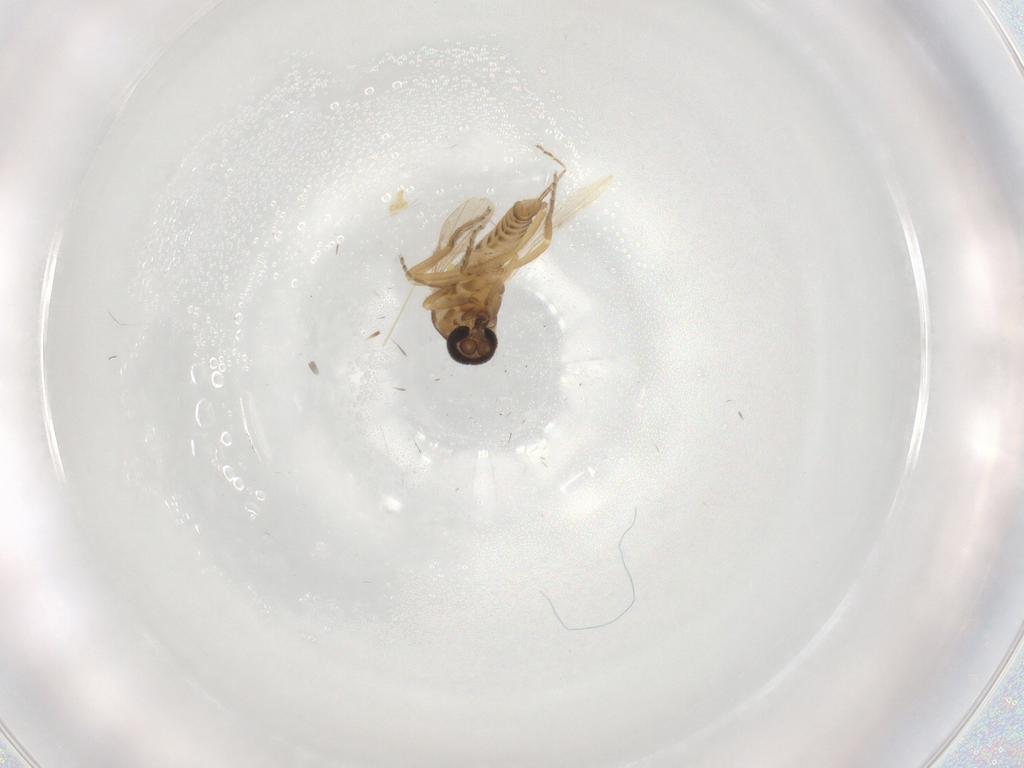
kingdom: Animalia
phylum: Arthropoda
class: Insecta
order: Diptera
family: Ceratopogonidae
